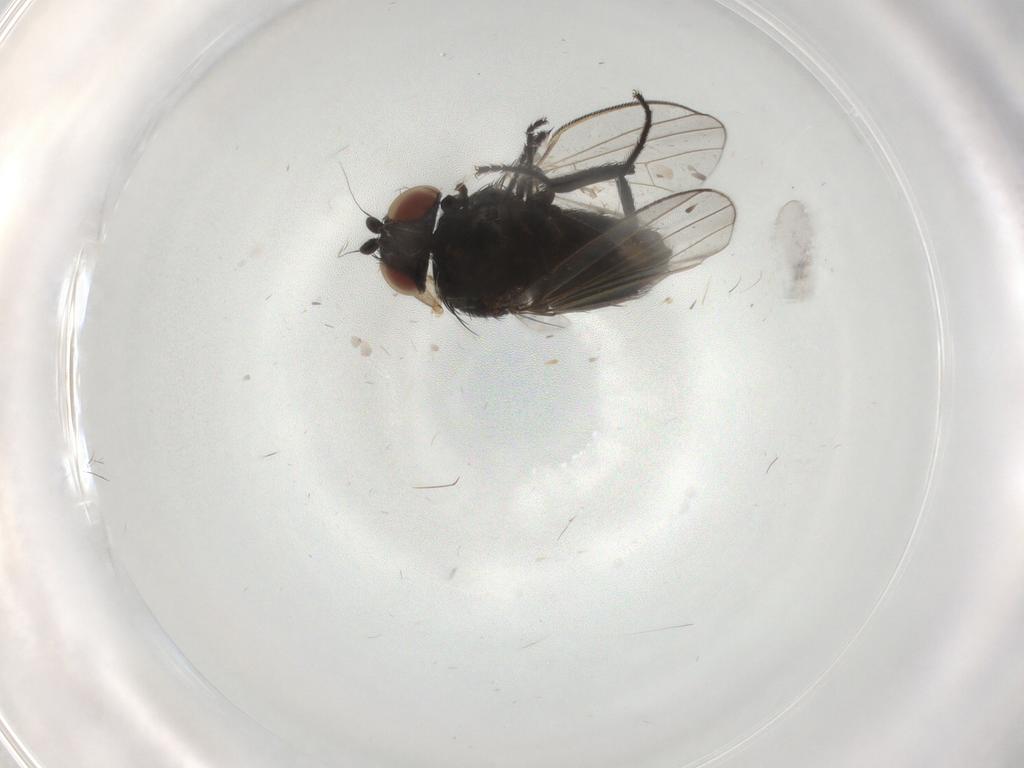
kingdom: Animalia
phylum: Arthropoda
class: Insecta
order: Diptera
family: Milichiidae
